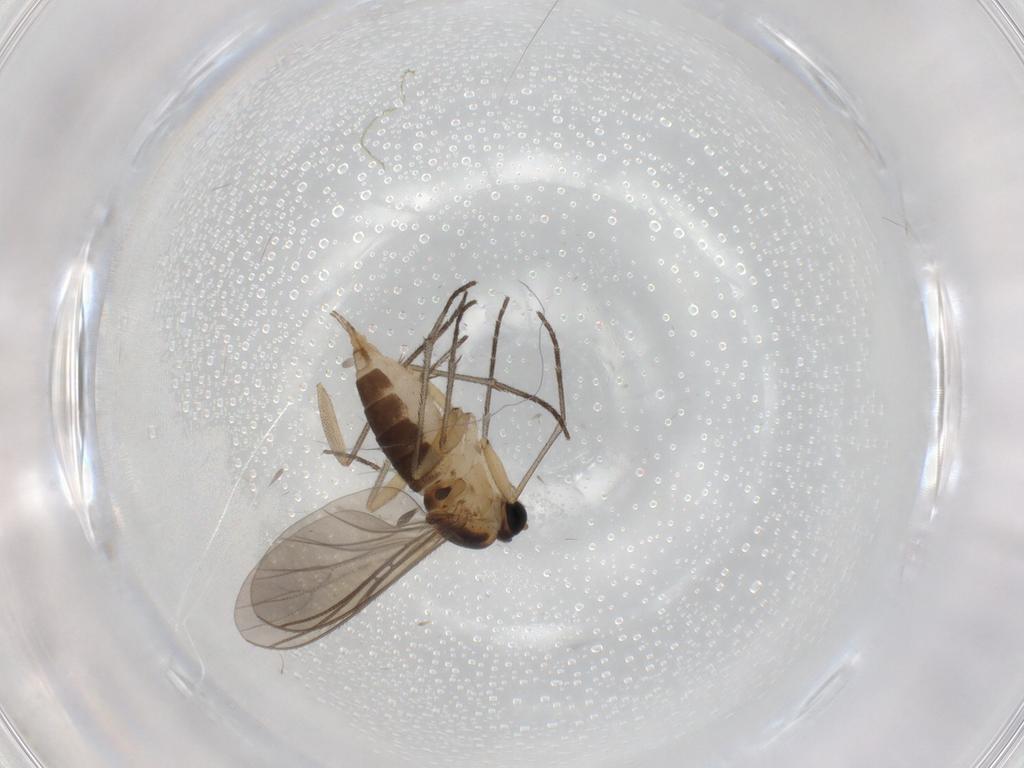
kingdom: Animalia
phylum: Arthropoda
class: Insecta
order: Diptera
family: Sciaridae
